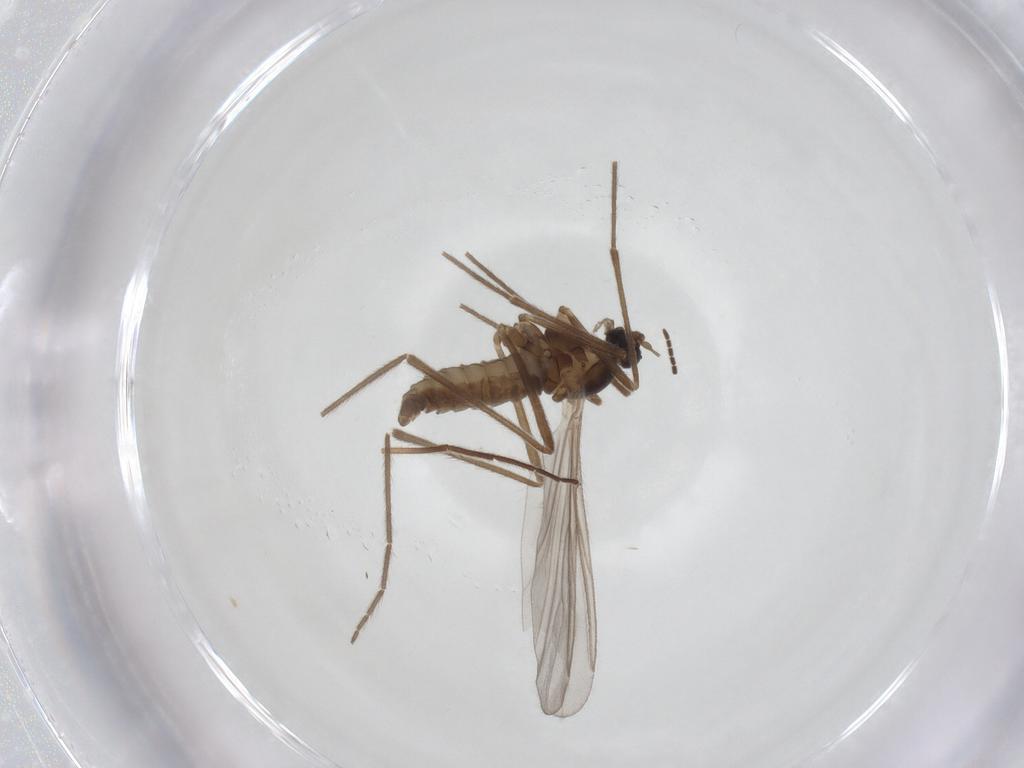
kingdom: Animalia
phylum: Arthropoda
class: Insecta
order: Diptera
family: Cecidomyiidae
